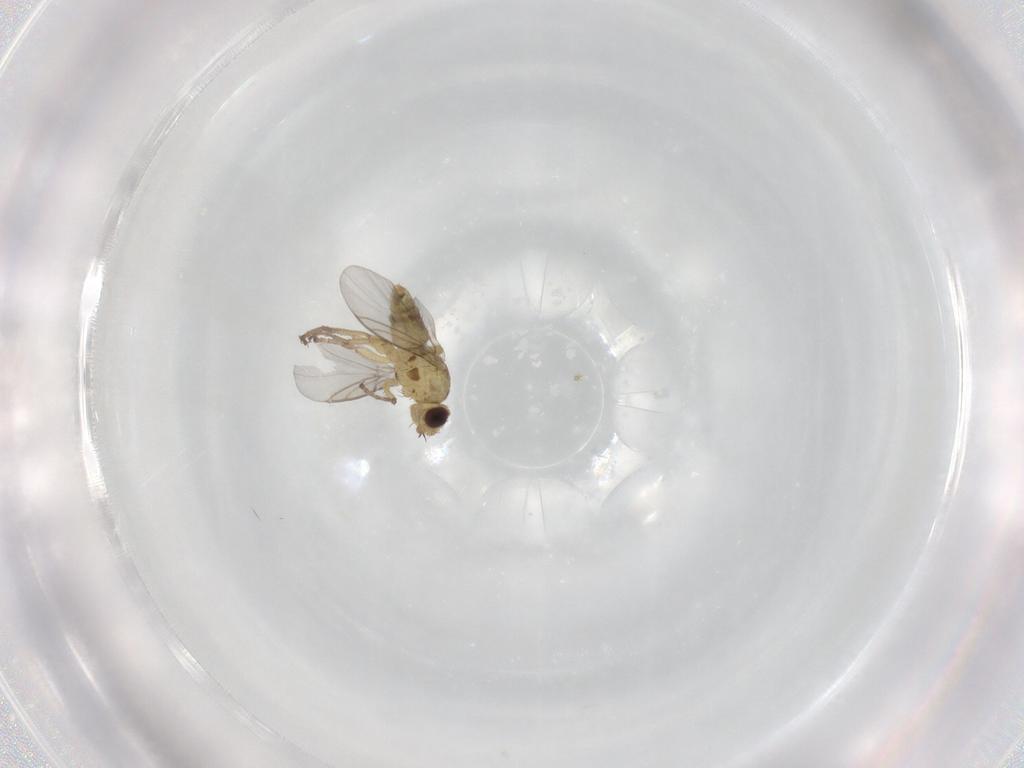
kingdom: Animalia
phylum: Arthropoda
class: Insecta
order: Diptera
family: Agromyzidae
